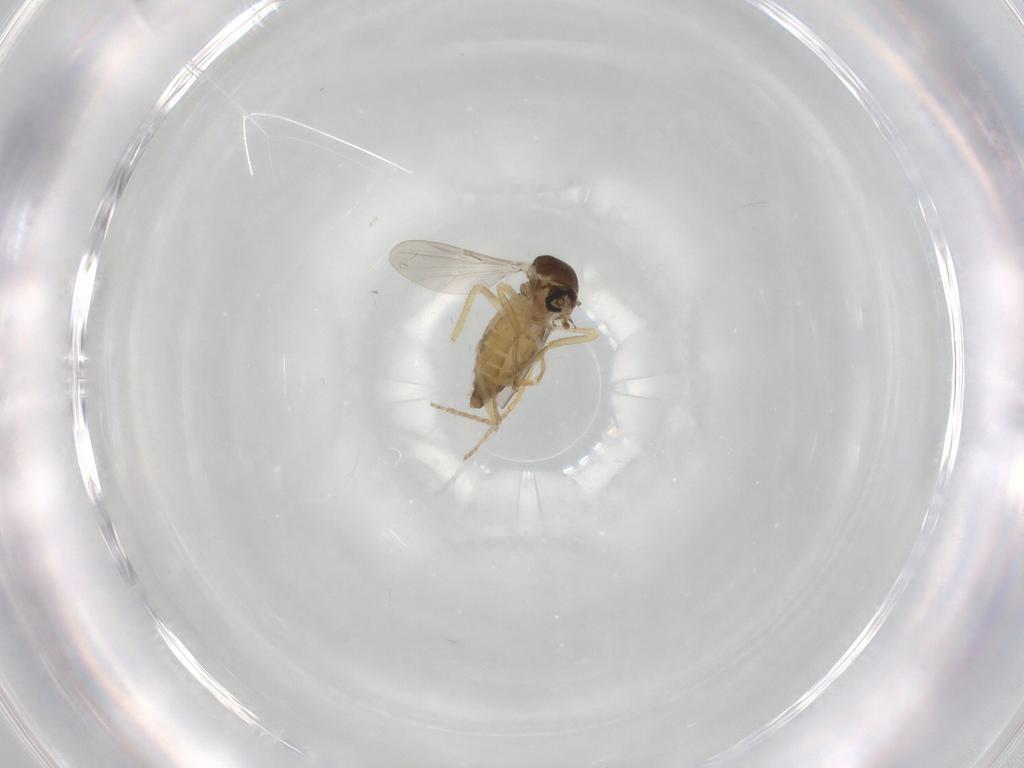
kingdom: Animalia
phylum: Arthropoda
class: Insecta
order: Diptera
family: Ceratopogonidae
